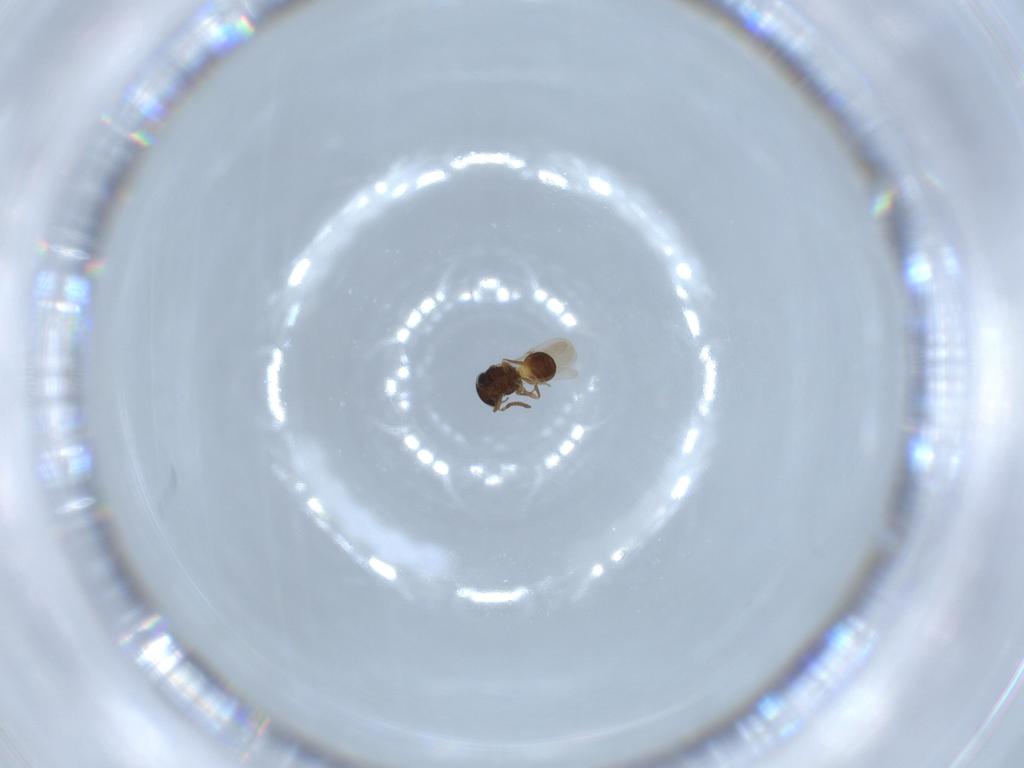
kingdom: Animalia
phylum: Arthropoda
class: Insecta
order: Hymenoptera
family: Scelionidae
